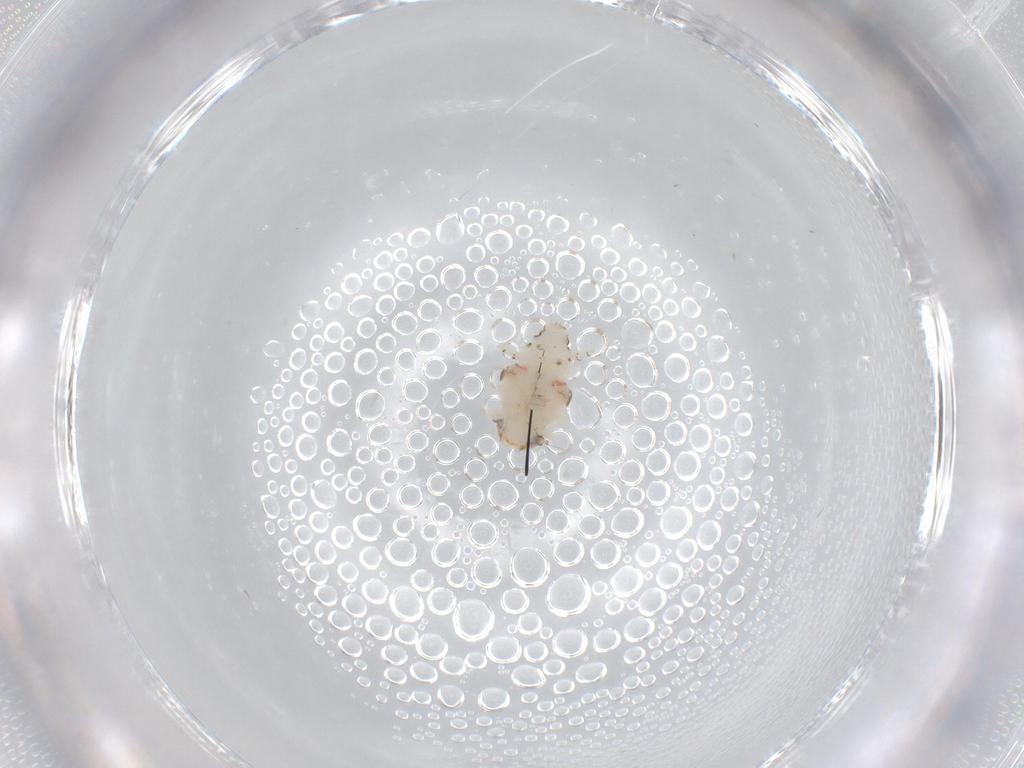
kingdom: Animalia
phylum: Arthropoda
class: Insecta
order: Hemiptera
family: Nogodinidae
